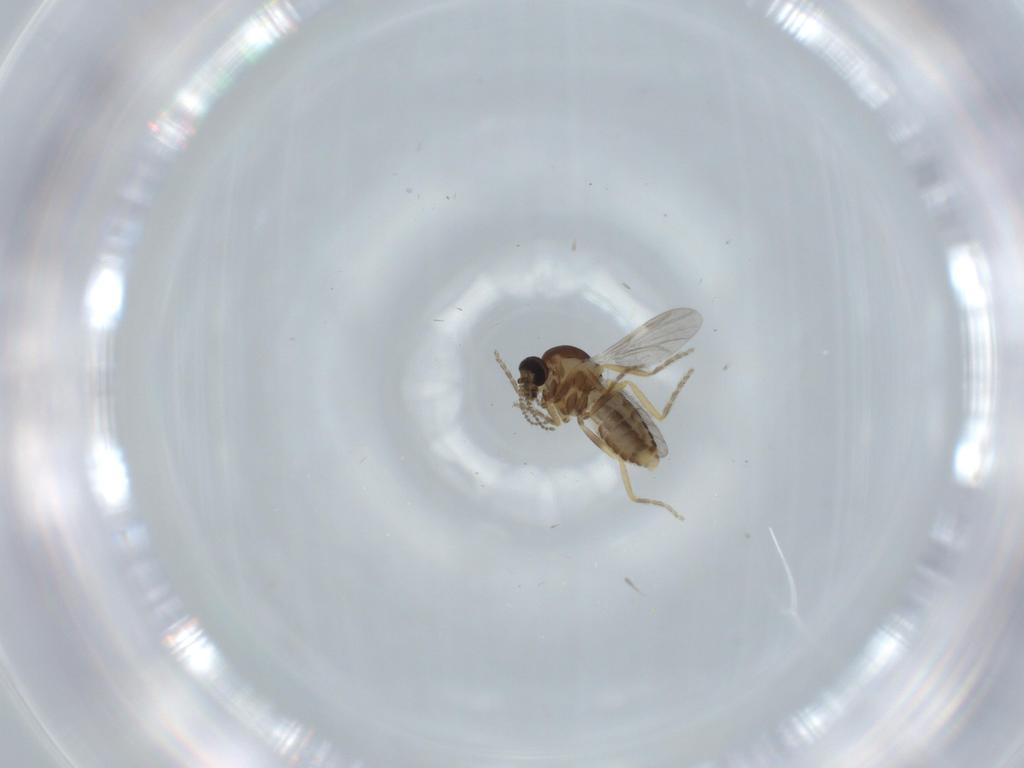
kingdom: Animalia
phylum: Arthropoda
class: Insecta
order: Diptera
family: Ceratopogonidae
